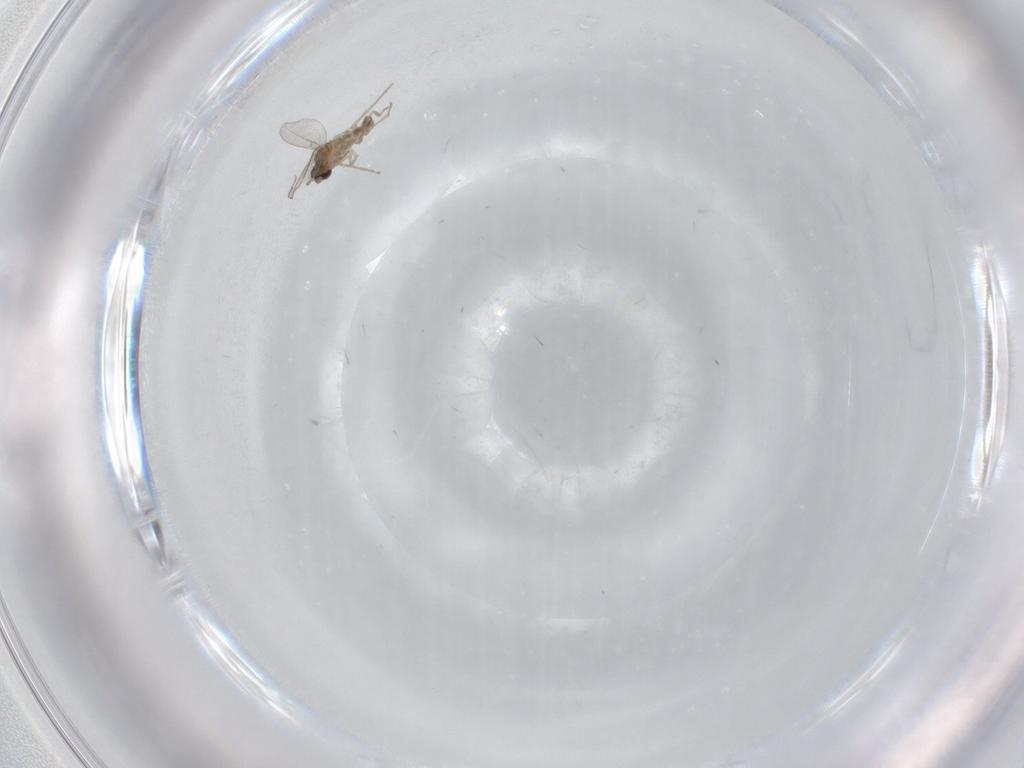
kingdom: Animalia
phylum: Arthropoda
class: Insecta
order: Diptera
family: Chironomidae
